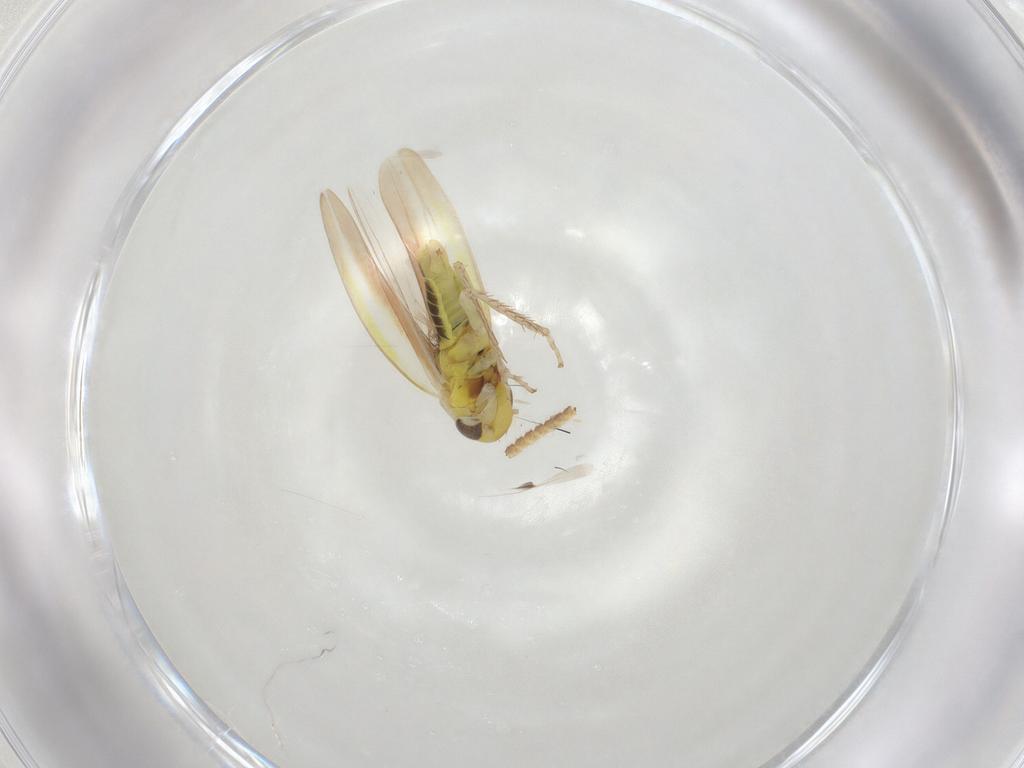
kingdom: Animalia
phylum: Arthropoda
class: Insecta
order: Hemiptera
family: Cicadellidae
